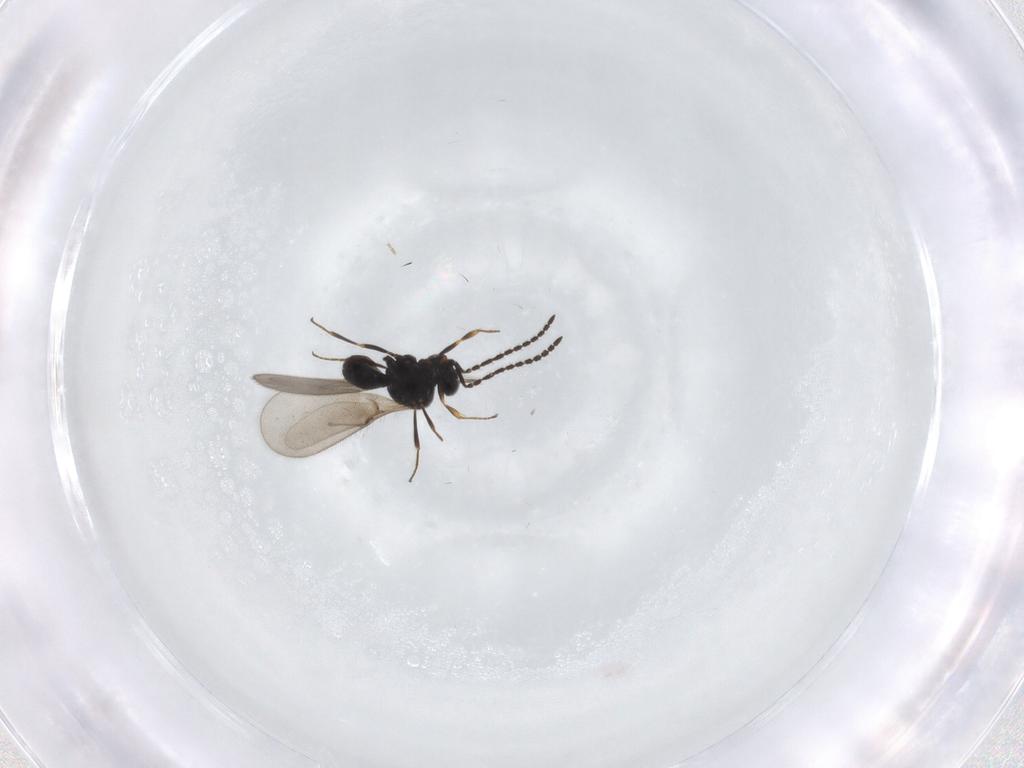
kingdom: Animalia
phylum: Arthropoda
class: Insecta
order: Hymenoptera
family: Scelionidae
